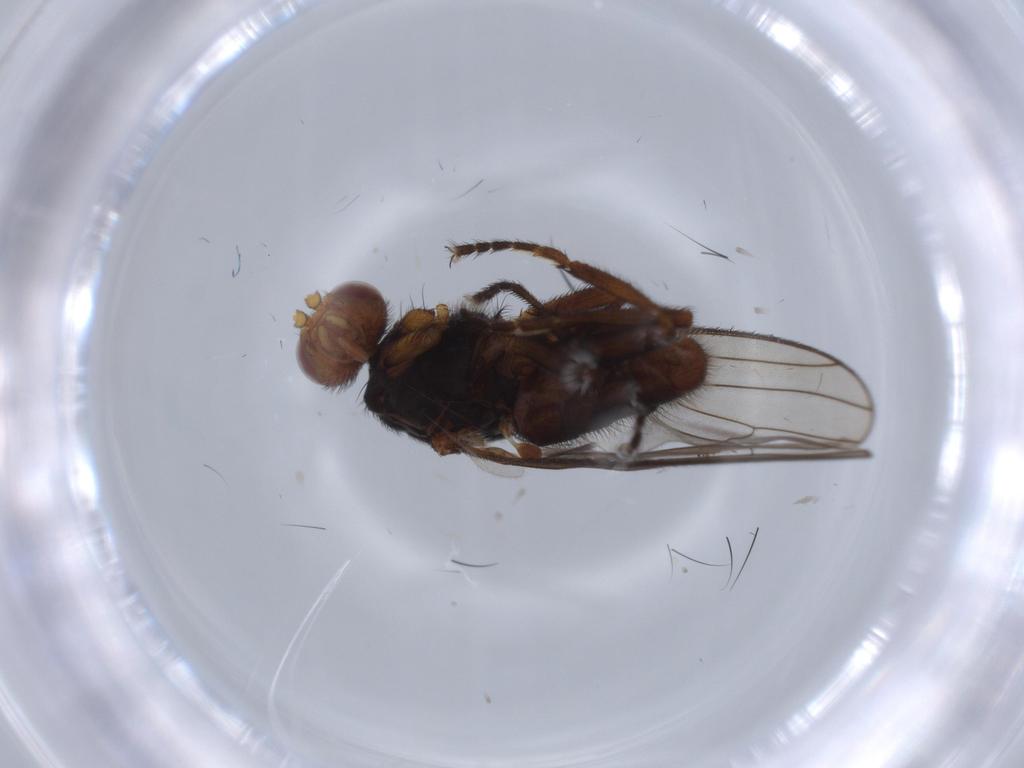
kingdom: Animalia
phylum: Arthropoda
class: Insecta
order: Diptera
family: Heleomyzidae
